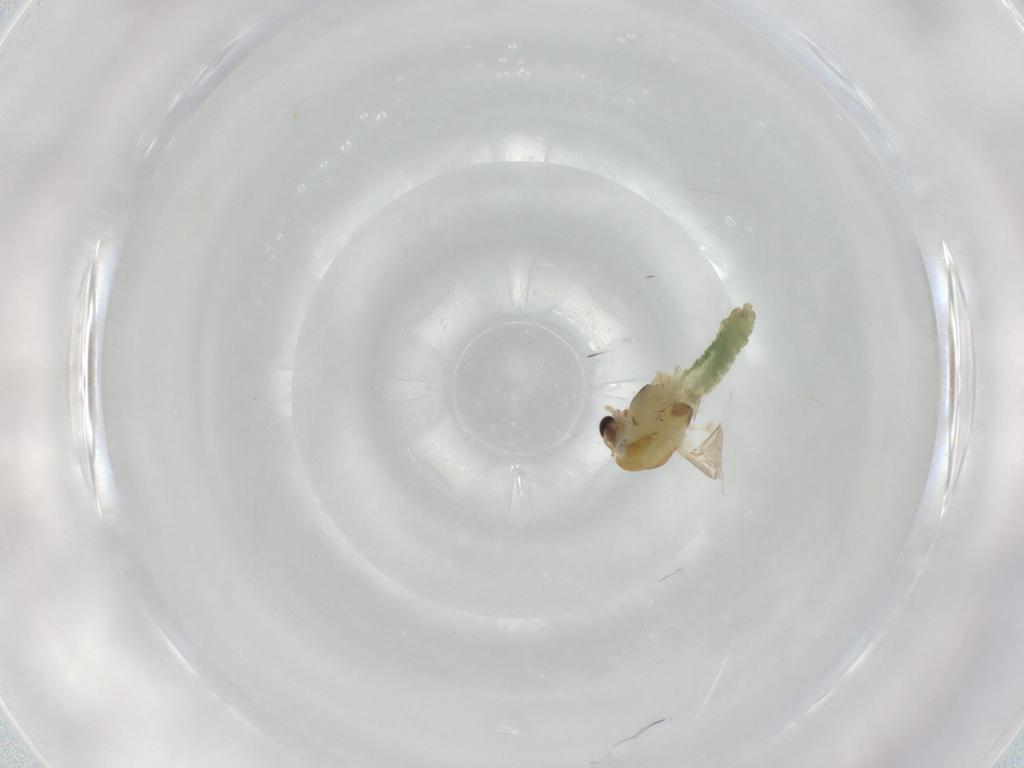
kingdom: Animalia
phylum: Arthropoda
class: Insecta
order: Diptera
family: Chironomidae
